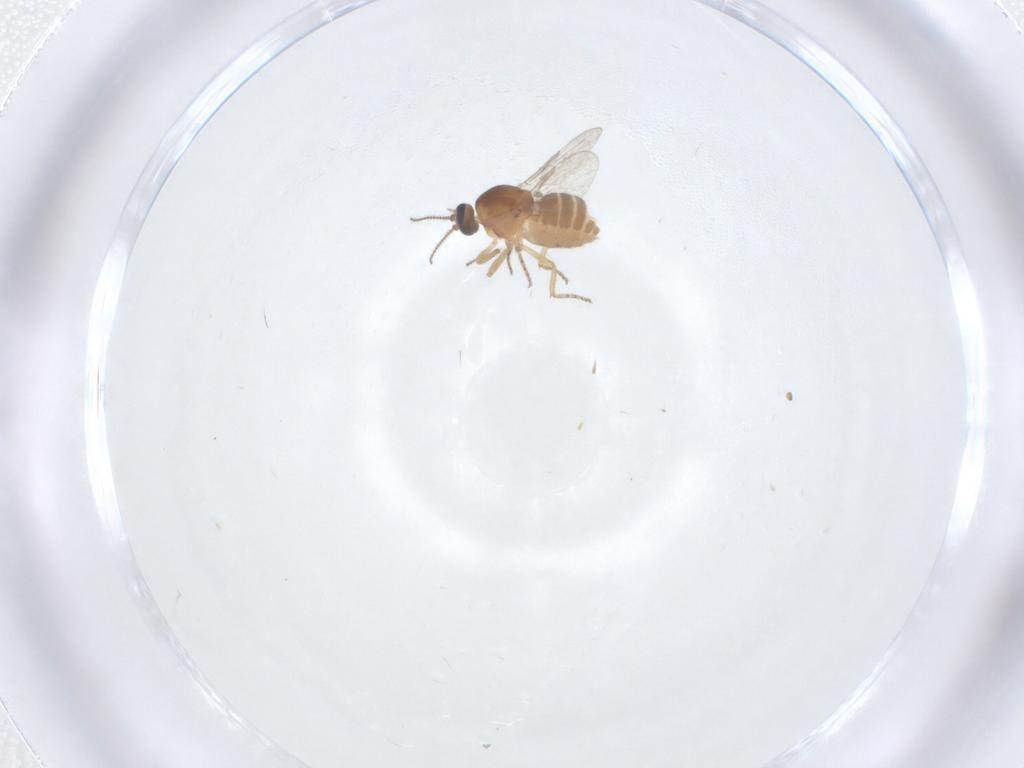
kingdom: Animalia
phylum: Arthropoda
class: Insecta
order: Diptera
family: Ceratopogonidae
